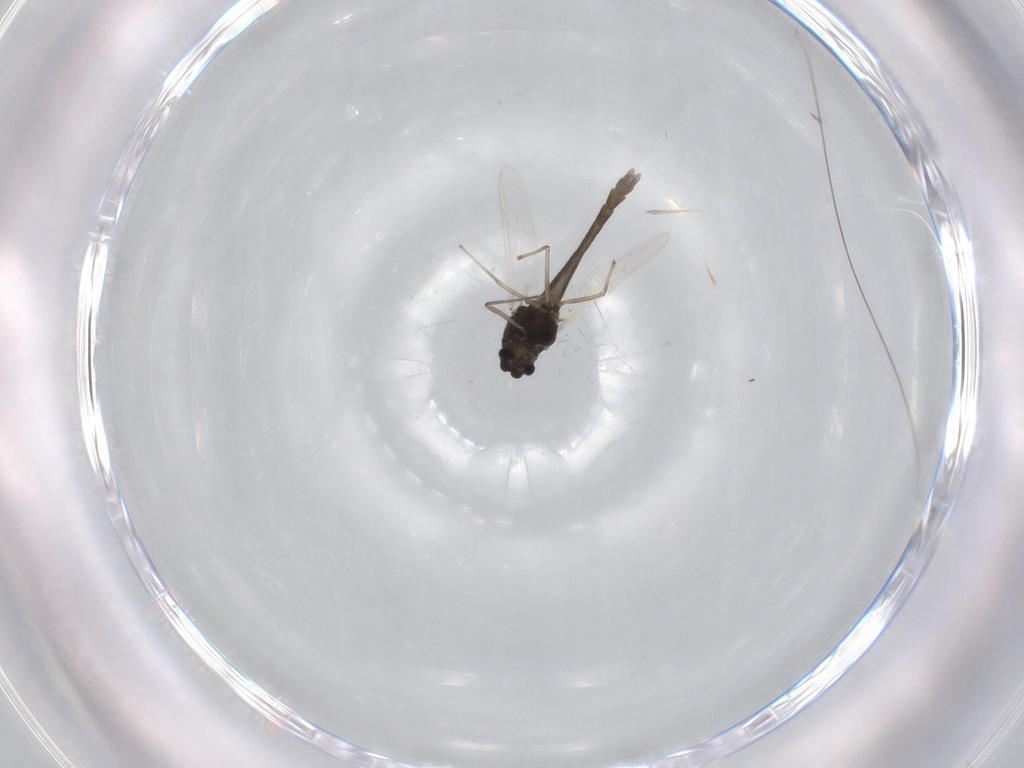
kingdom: Animalia
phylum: Arthropoda
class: Insecta
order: Diptera
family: Chironomidae
